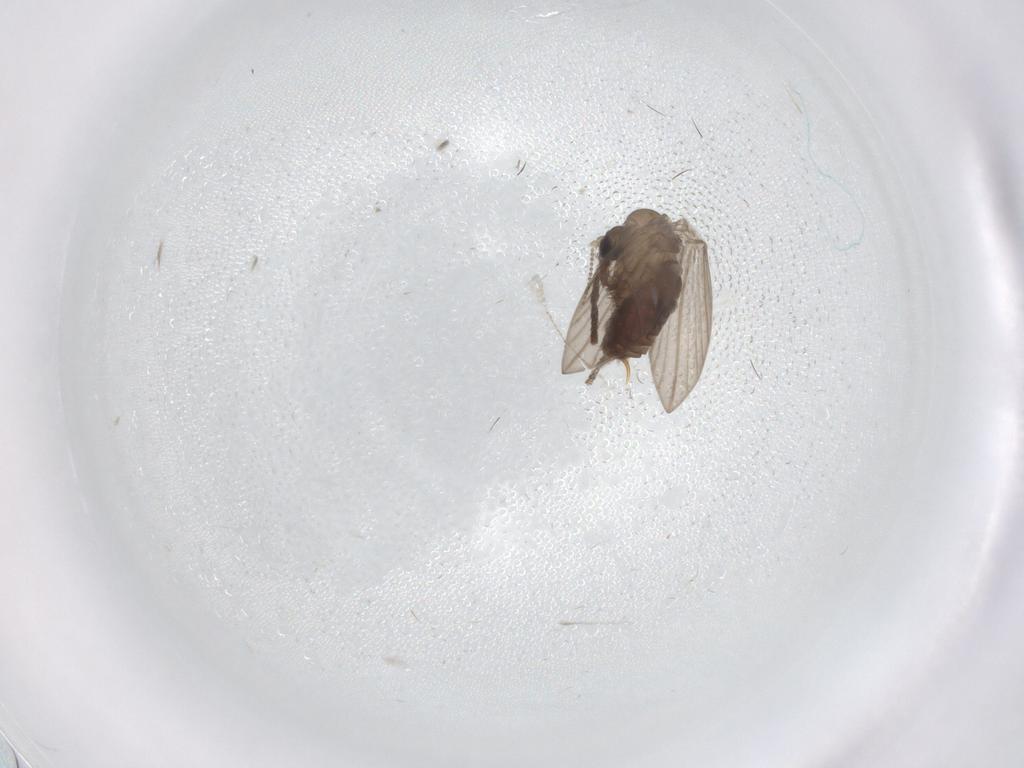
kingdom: Animalia
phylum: Arthropoda
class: Insecta
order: Diptera
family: Psychodidae
